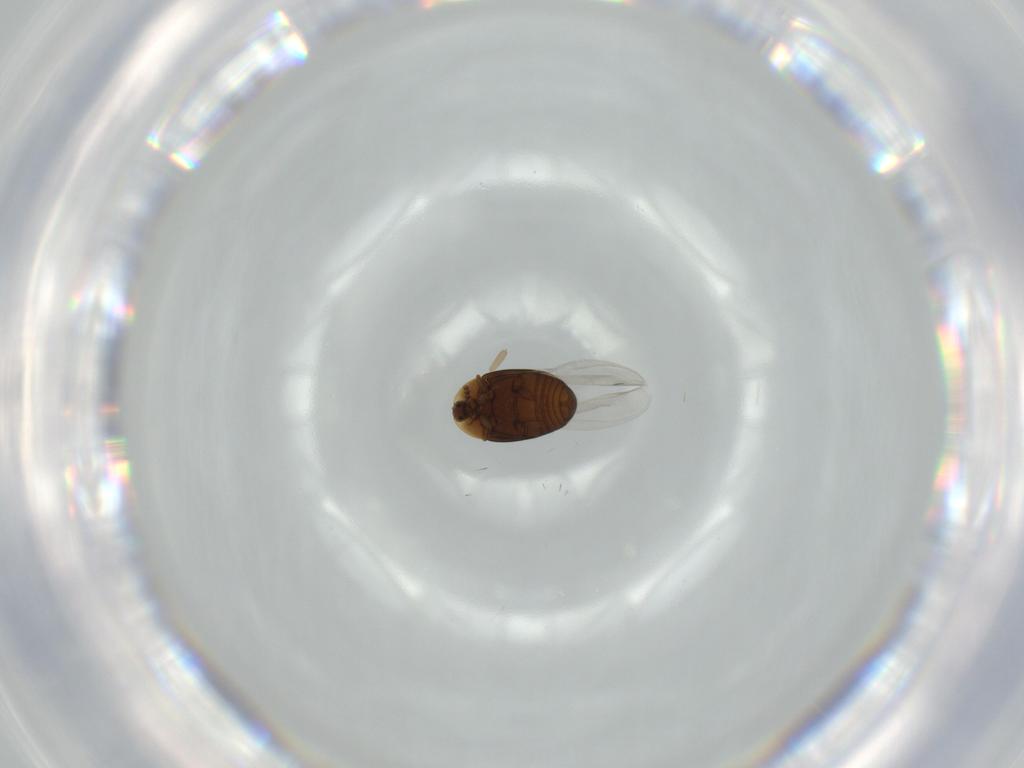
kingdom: Animalia
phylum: Arthropoda
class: Insecta
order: Coleoptera
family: Corylophidae
